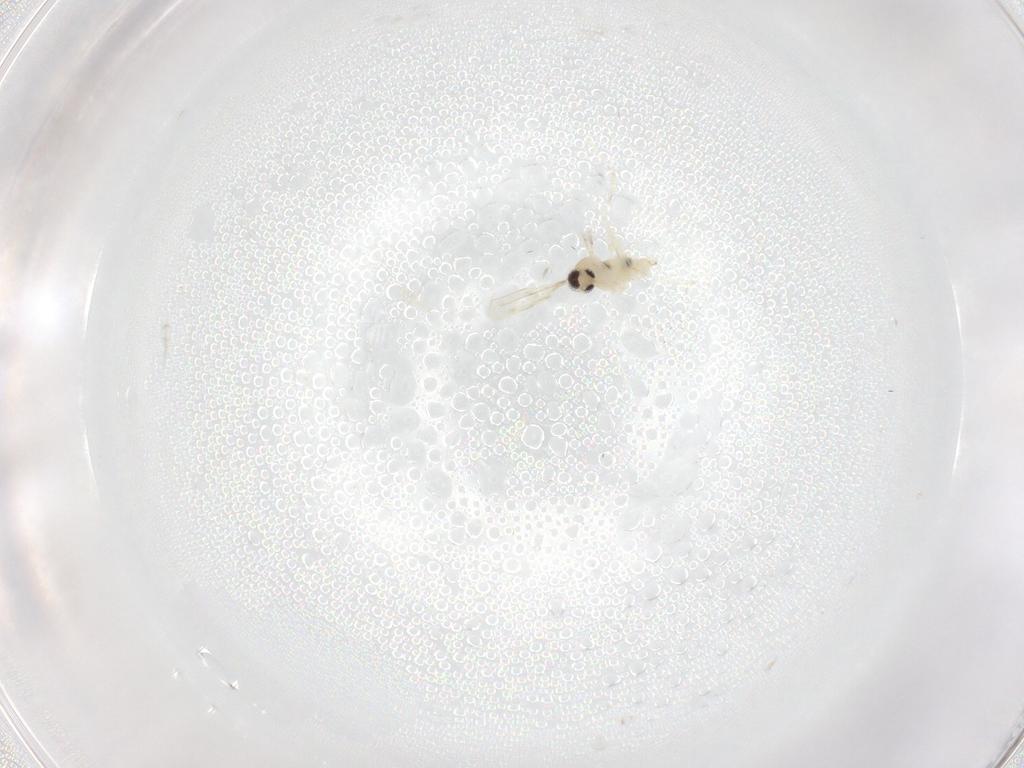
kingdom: Animalia
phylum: Arthropoda
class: Insecta
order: Diptera
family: Cecidomyiidae
